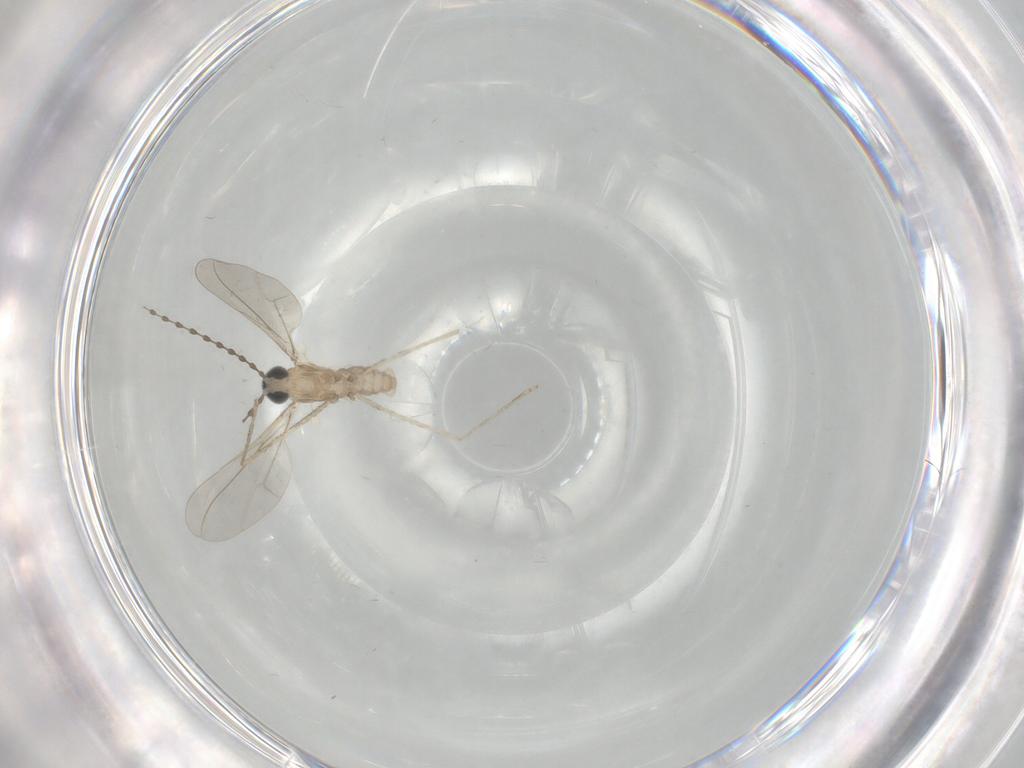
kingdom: Animalia
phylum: Arthropoda
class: Insecta
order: Diptera
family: Cecidomyiidae
